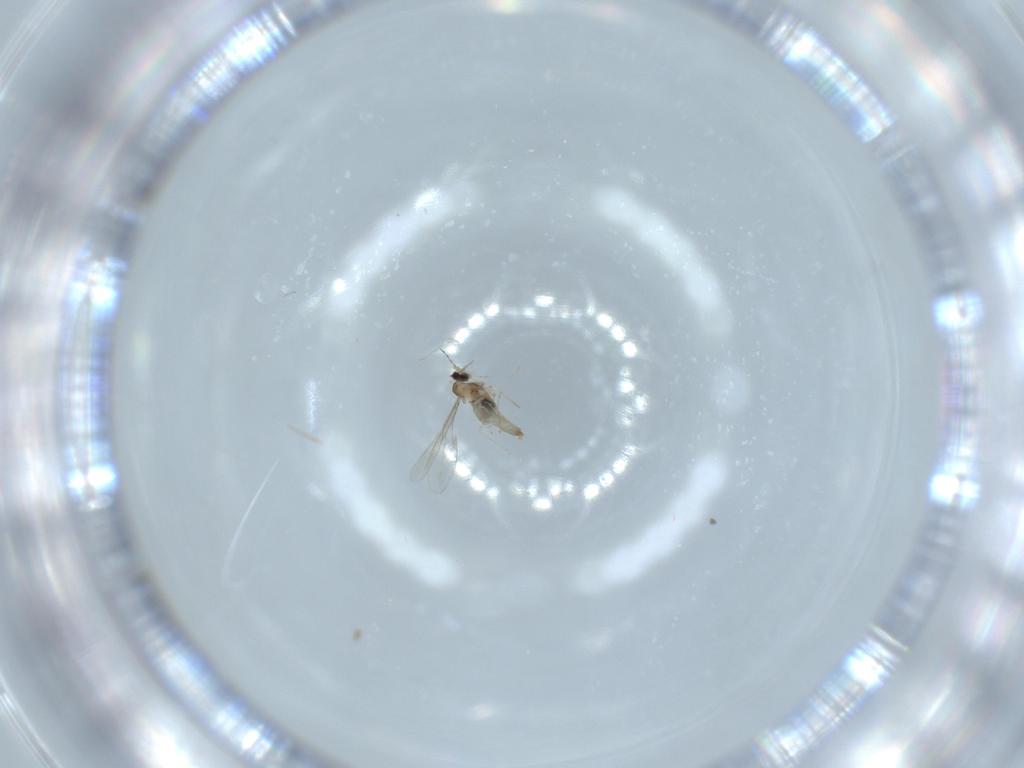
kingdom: Animalia
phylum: Arthropoda
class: Insecta
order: Diptera
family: Cecidomyiidae
